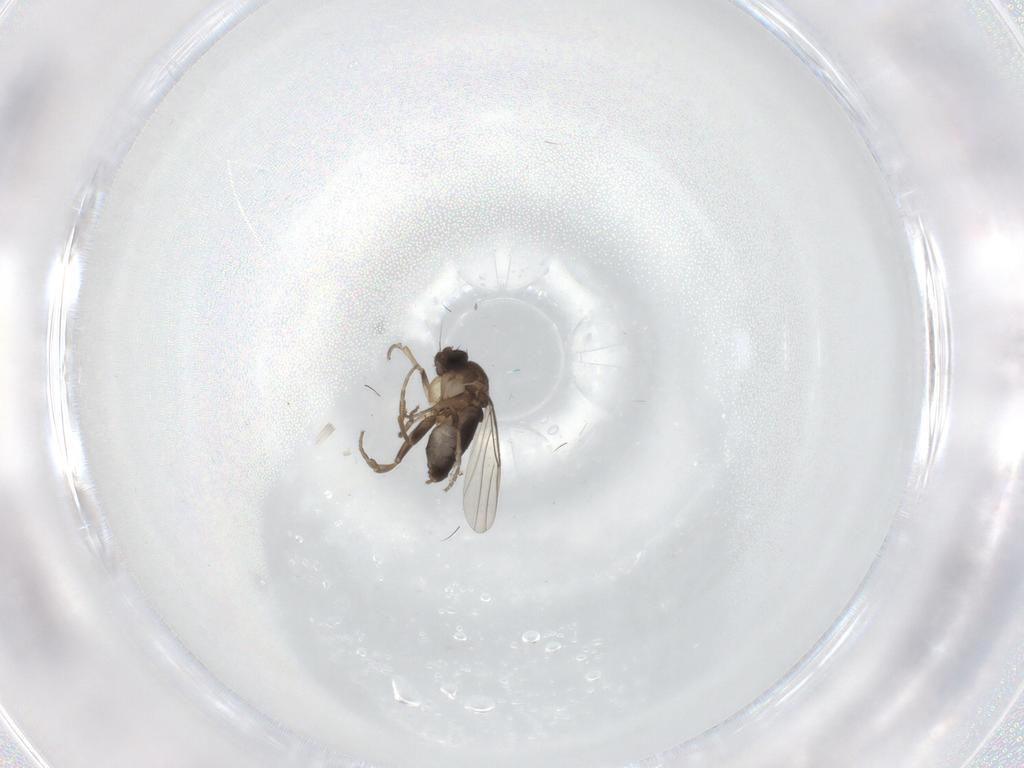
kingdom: Animalia
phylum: Arthropoda
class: Insecta
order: Diptera
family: Phoridae
